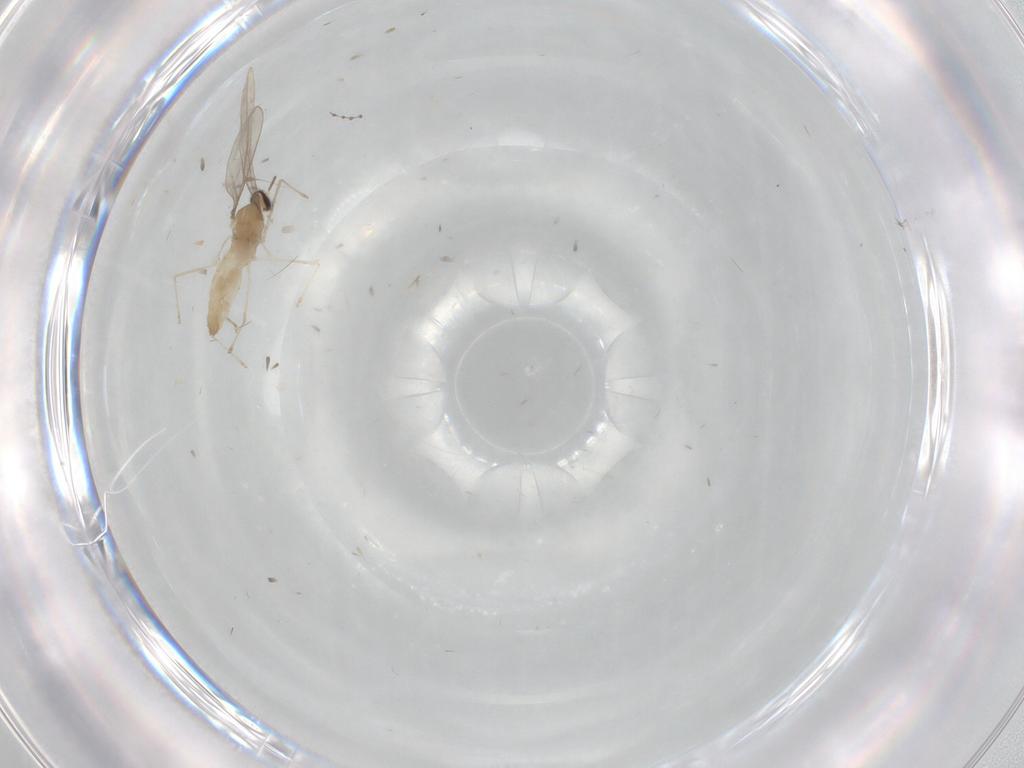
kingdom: Animalia
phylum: Arthropoda
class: Insecta
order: Diptera
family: Cecidomyiidae
